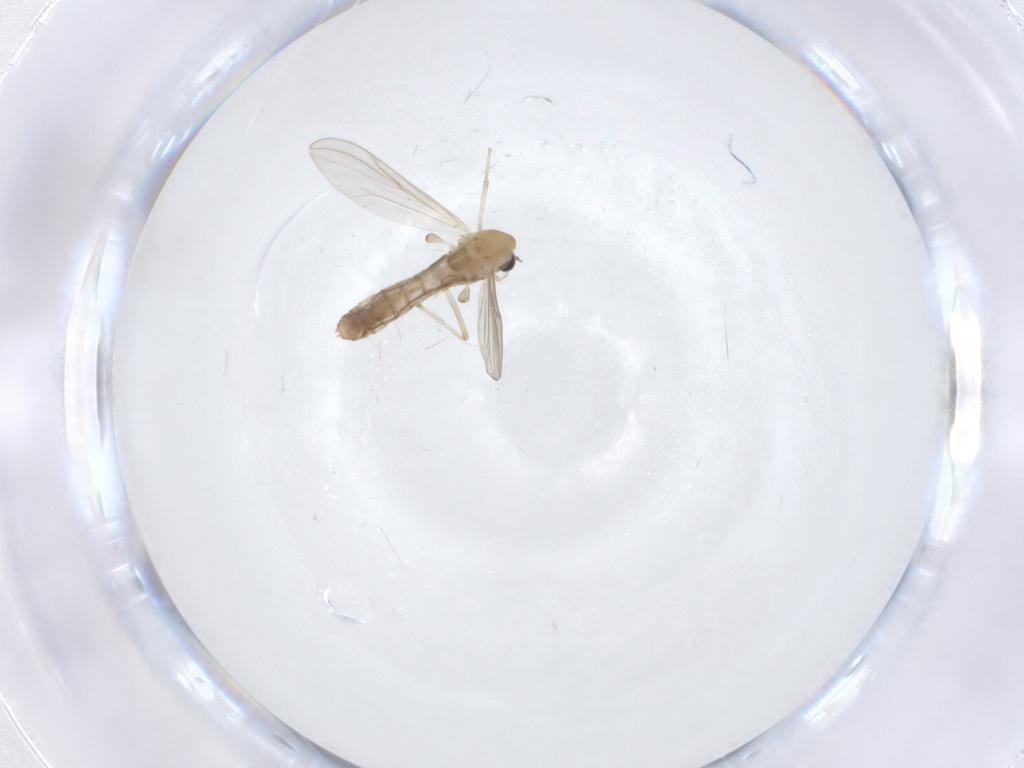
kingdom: Animalia
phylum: Arthropoda
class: Insecta
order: Diptera
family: Chironomidae
